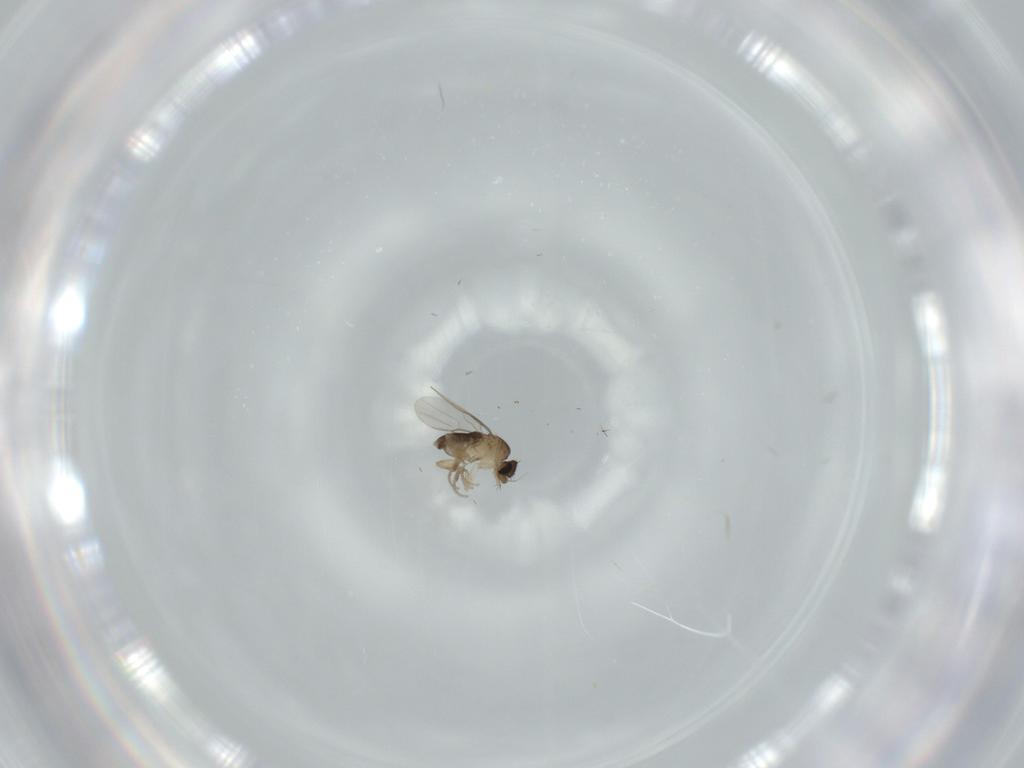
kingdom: Animalia
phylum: Arthropoda
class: Insecta
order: Diptera
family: Phoridae
